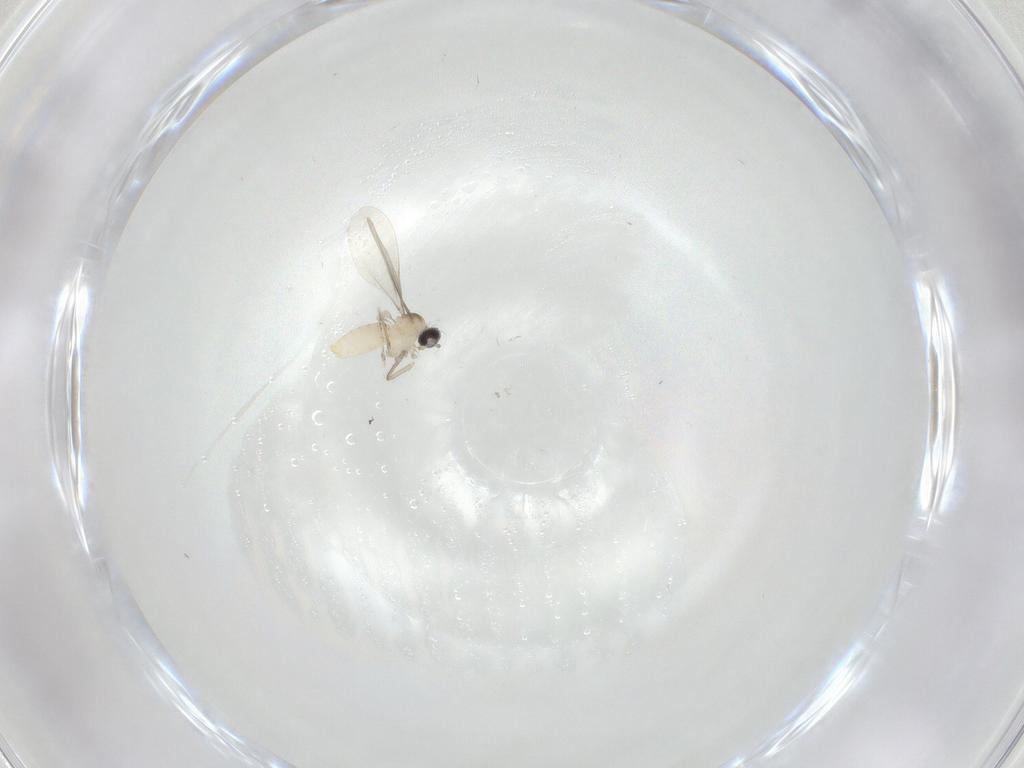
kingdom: Animalia
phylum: Arthropoda
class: Insecta
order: Diptera
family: Cecidomyiidae
